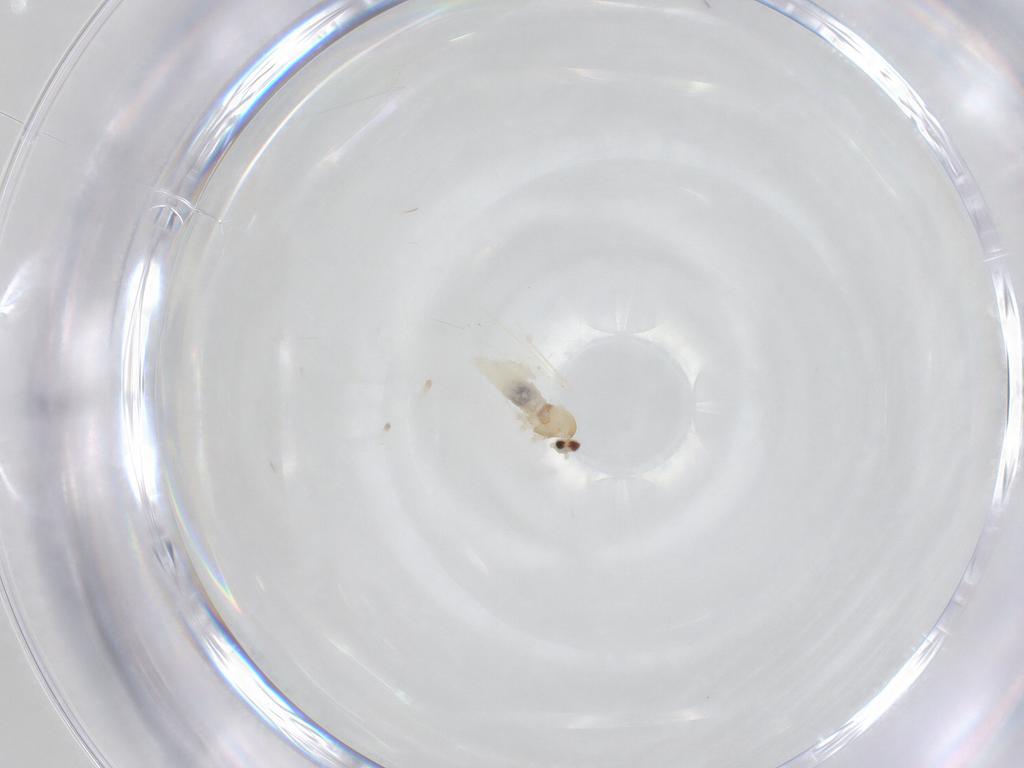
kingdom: Animalia
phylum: Arthropoda
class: Insecta
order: Diptera
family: Cecidomyiidae
